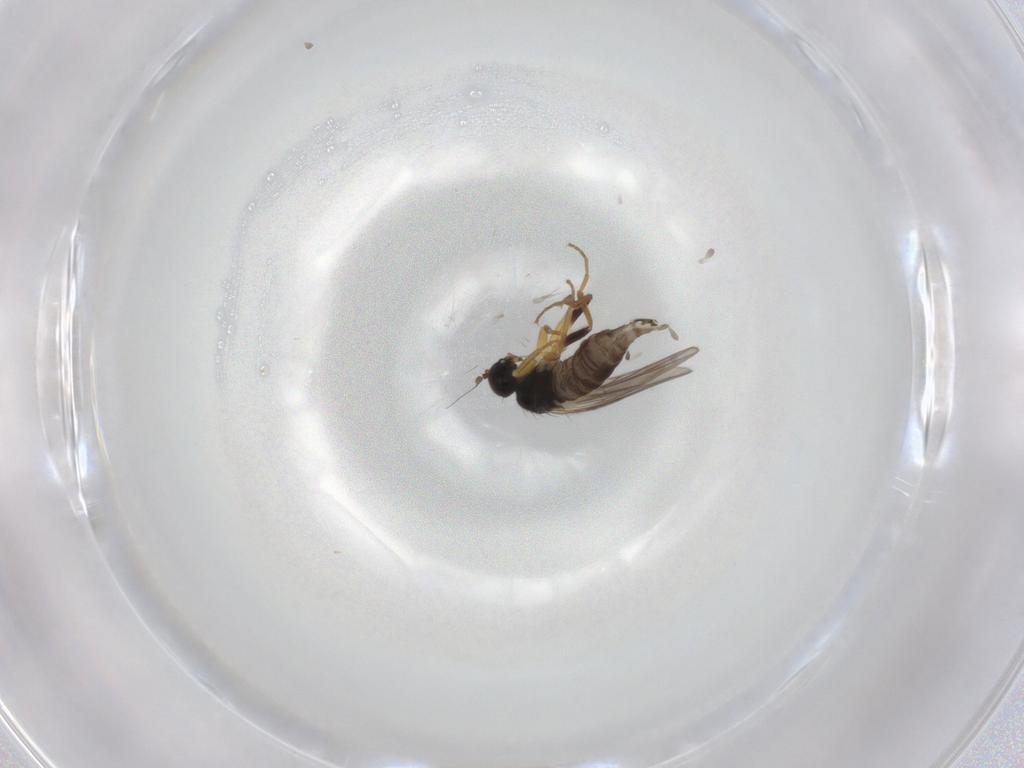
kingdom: Animalia
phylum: Arthropoda
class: Insecta
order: Diptera
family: Hybotidae
